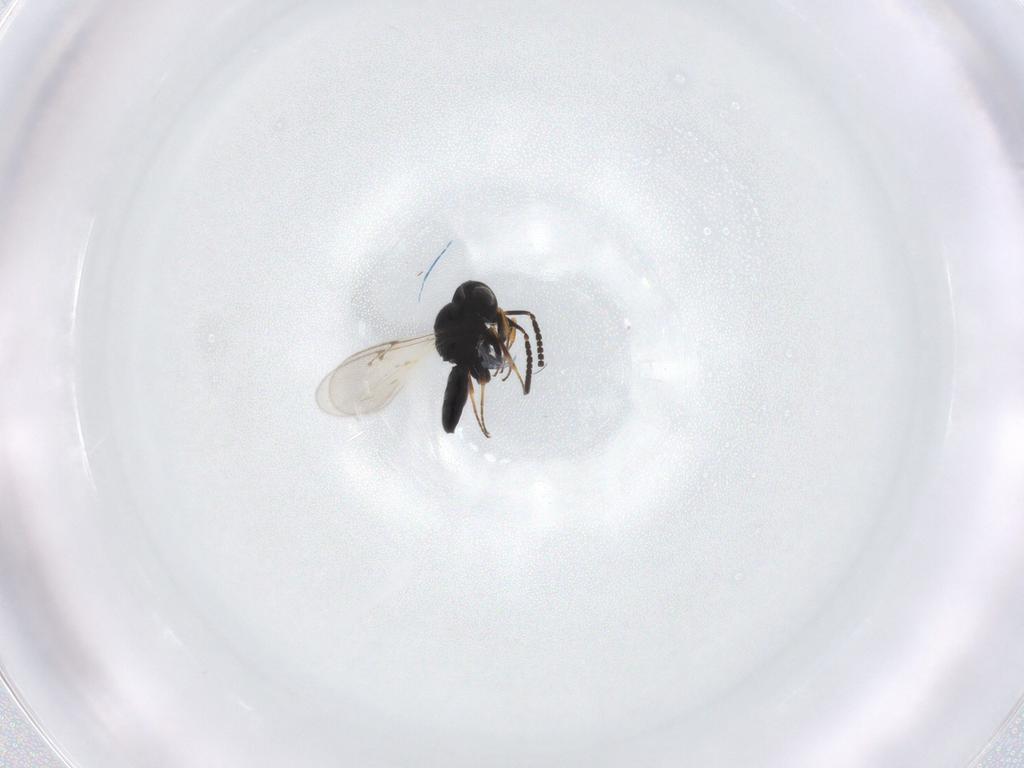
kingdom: Animalia
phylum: Arthropoda
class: Insecta
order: Hymenoptera
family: Scelionidae
